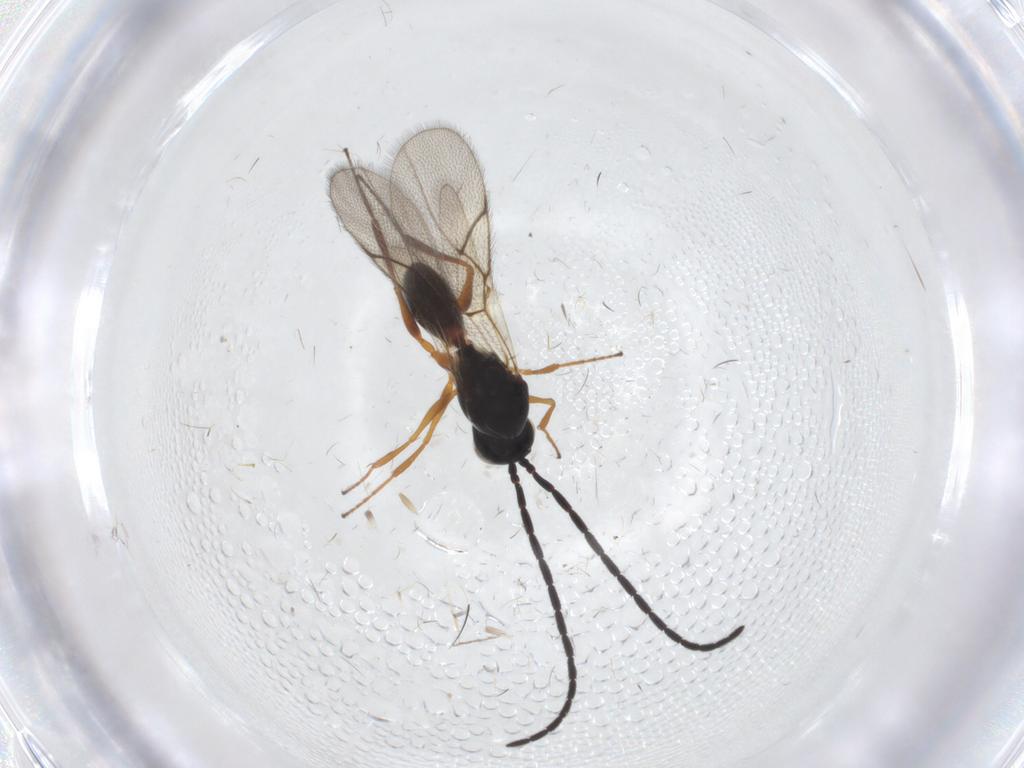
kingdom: Animalia
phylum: Arthropoda
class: Insecta
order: Hymenoptera
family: Figitidae
